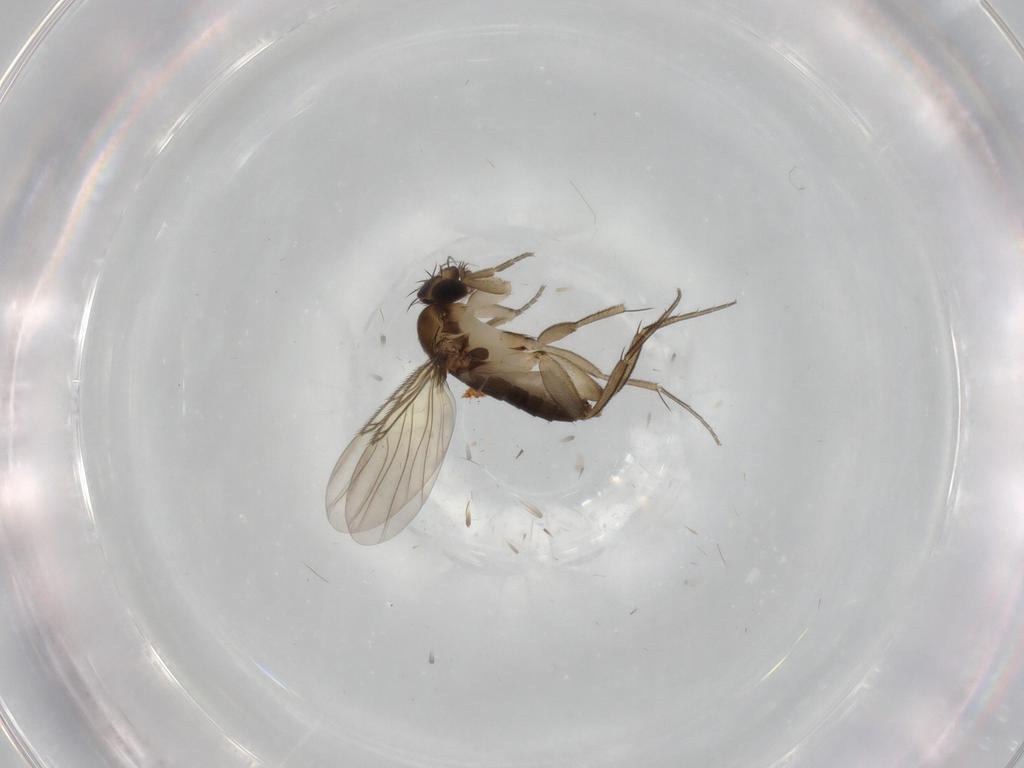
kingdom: Animalia
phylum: Arthropoda
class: Insecta
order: Diptera
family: Phoridae
